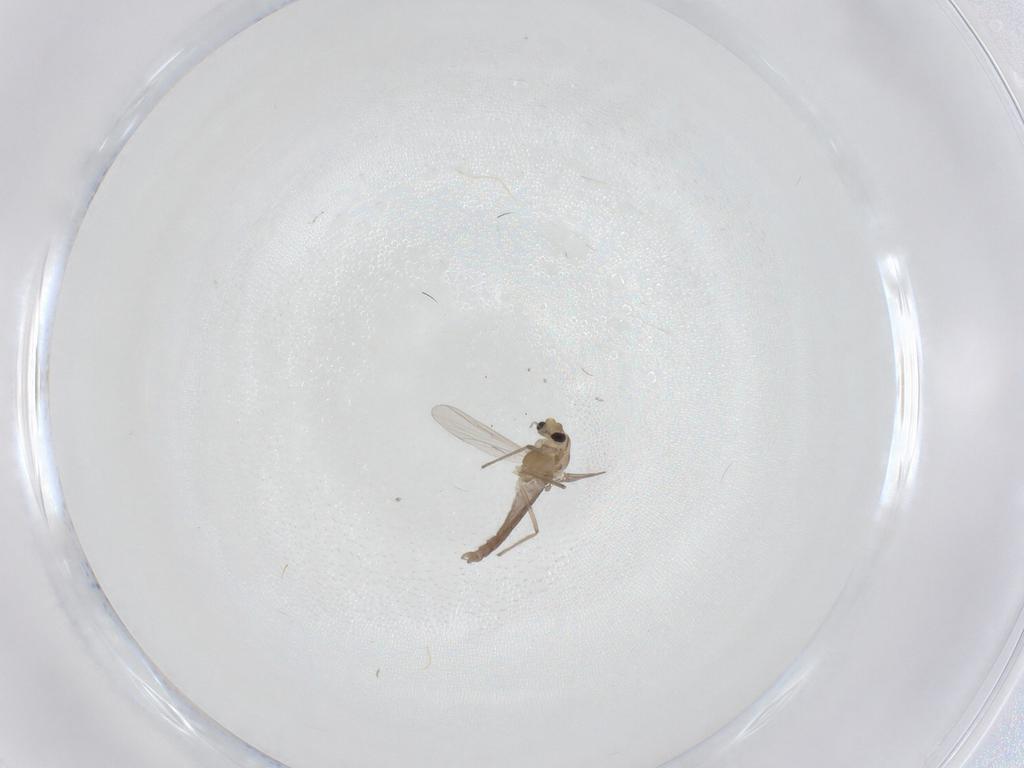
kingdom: Animalia
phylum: Arthropoda
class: Insecta
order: Diptera
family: Chironomidae
